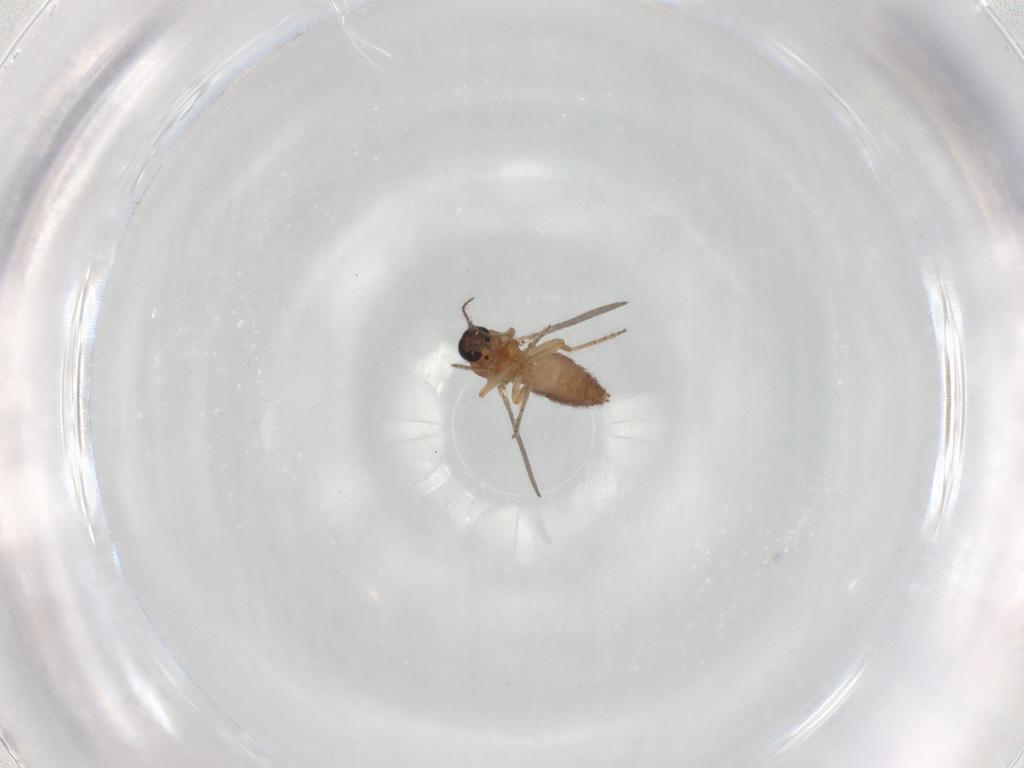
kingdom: Animalia
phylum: Arthropoda
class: Insecta
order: Diptera
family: Ceratopogonidae
